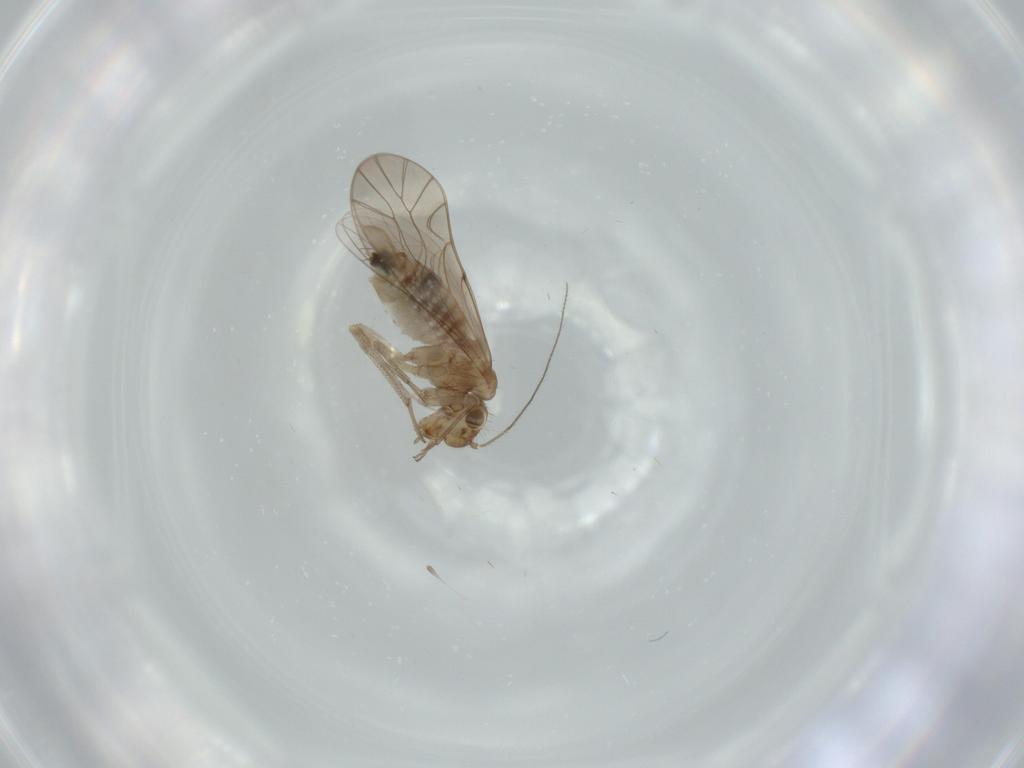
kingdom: Animalia
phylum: Arthropoda
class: Insecta
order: Psocodea
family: Lachesillidae
